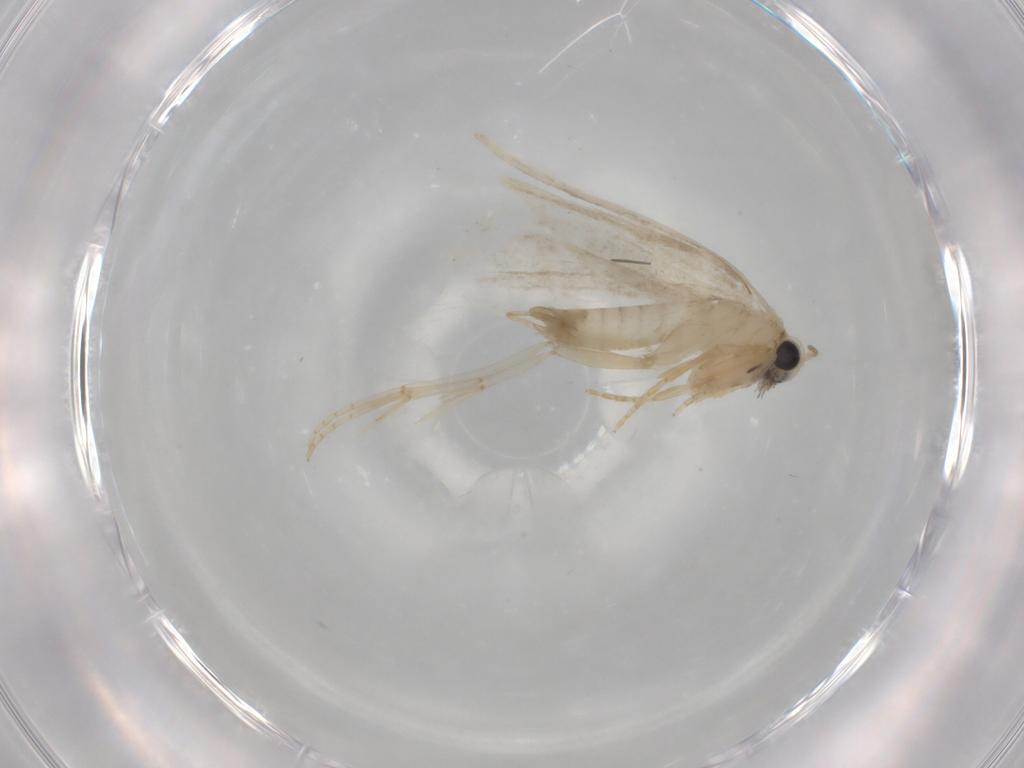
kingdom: Animalia
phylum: Arthropoda
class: Insecta
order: Lepidoptera
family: Psychidae
